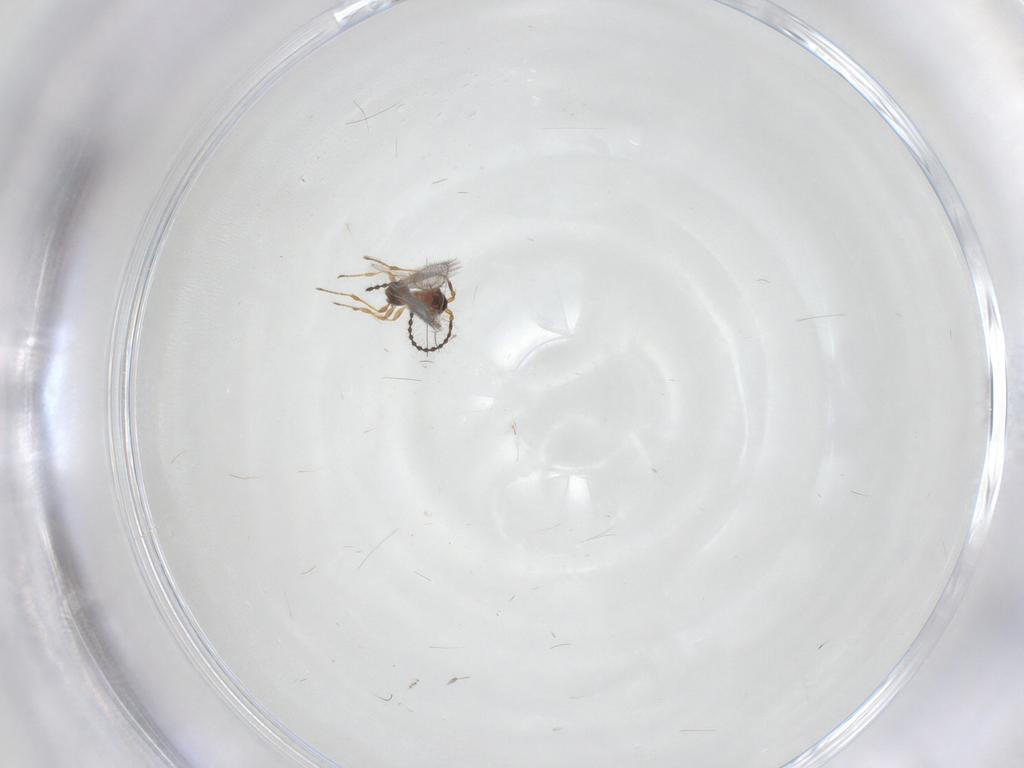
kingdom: Animalia
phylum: Arthropoda
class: Insecta
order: Hymenoptera
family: Diapriidae
